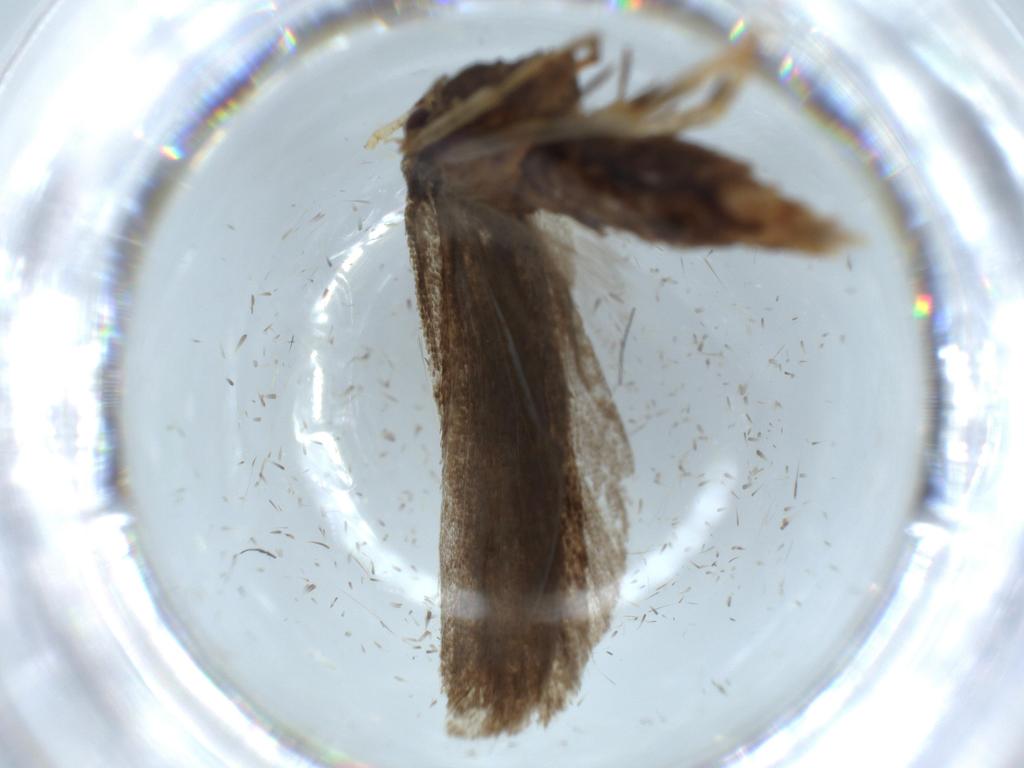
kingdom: Animalia
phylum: Arthropoda
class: Insecta
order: Lepidoptera
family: Lecithoceridae
